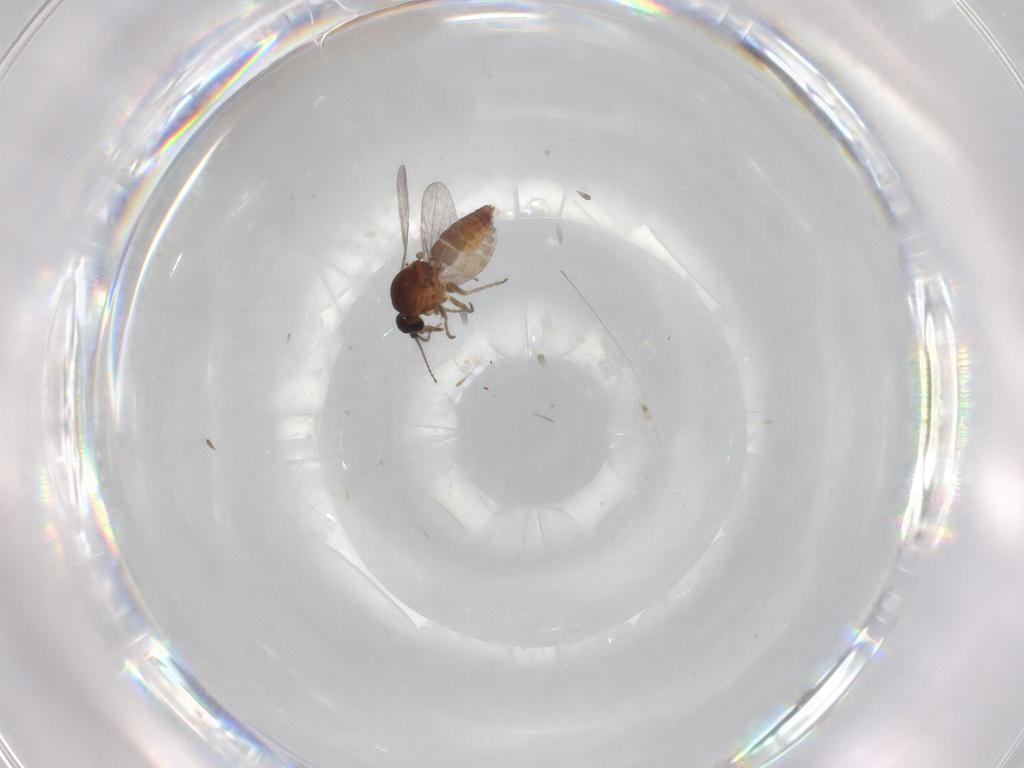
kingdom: Animalia
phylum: Arthropoda
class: Insecta
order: Diptera
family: Ceratopogonidae
